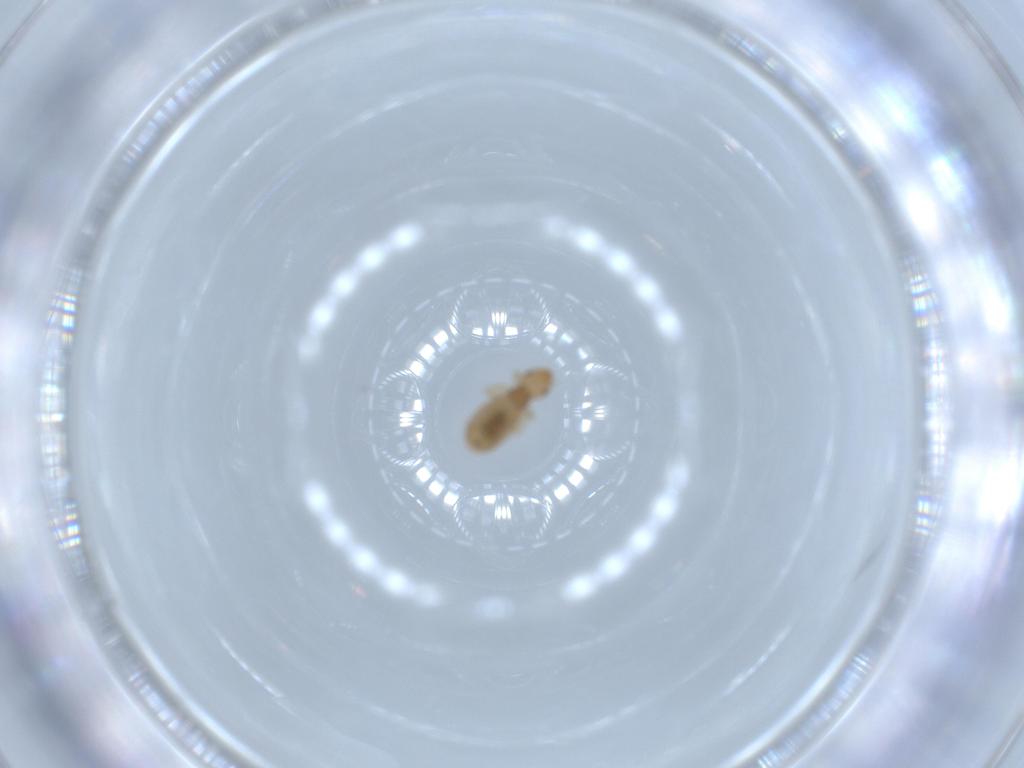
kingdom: Animalia
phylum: Arthropoda
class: Insecta
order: Psocodea
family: Liposcelididae
